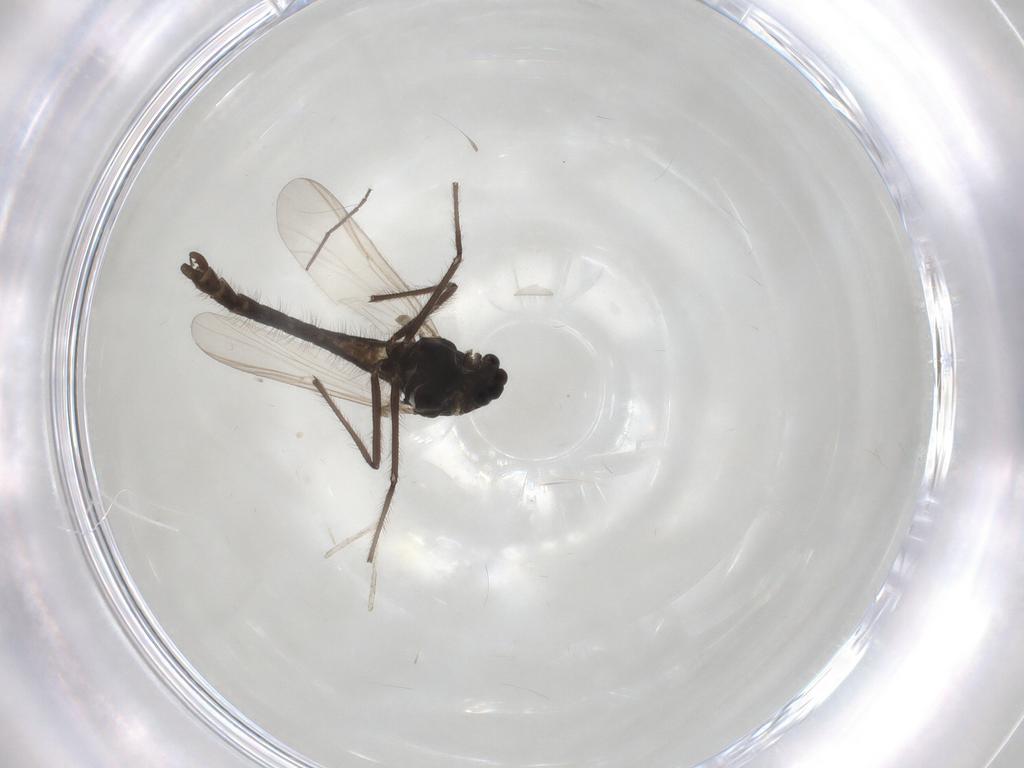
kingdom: Animalia
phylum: Arthropoda
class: Insecta
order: Diptera
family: Cecidomyiidae
